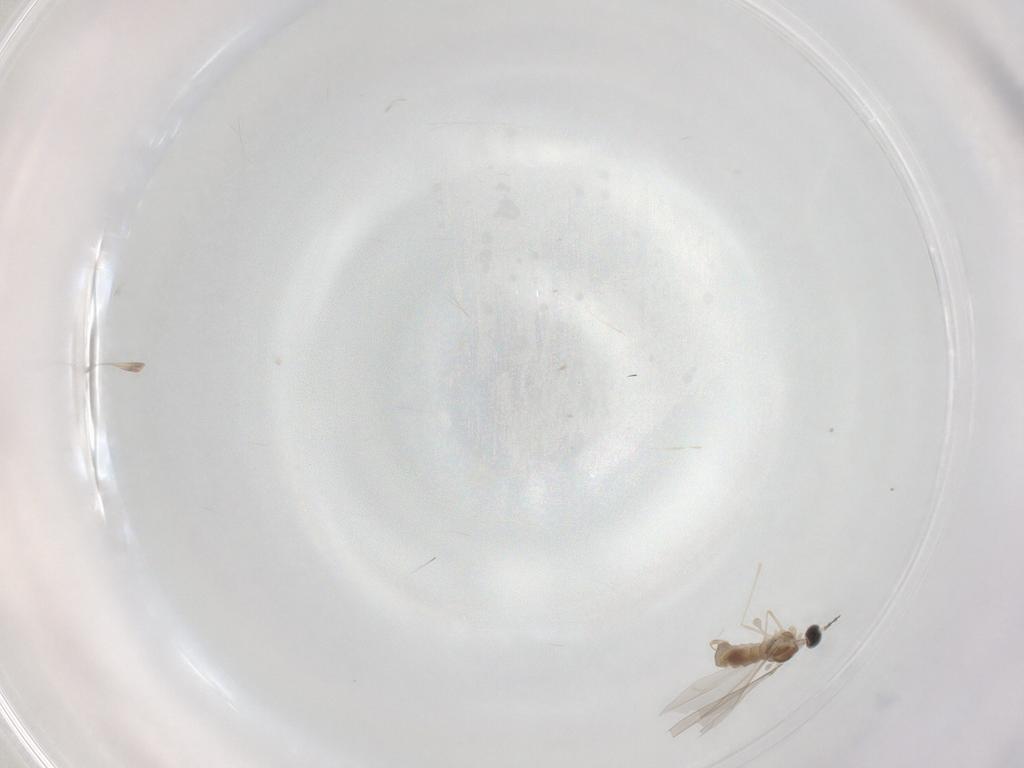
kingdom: Animalia
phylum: Arthropoda
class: Insecta
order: Diptera
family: Cecidomyiidae
